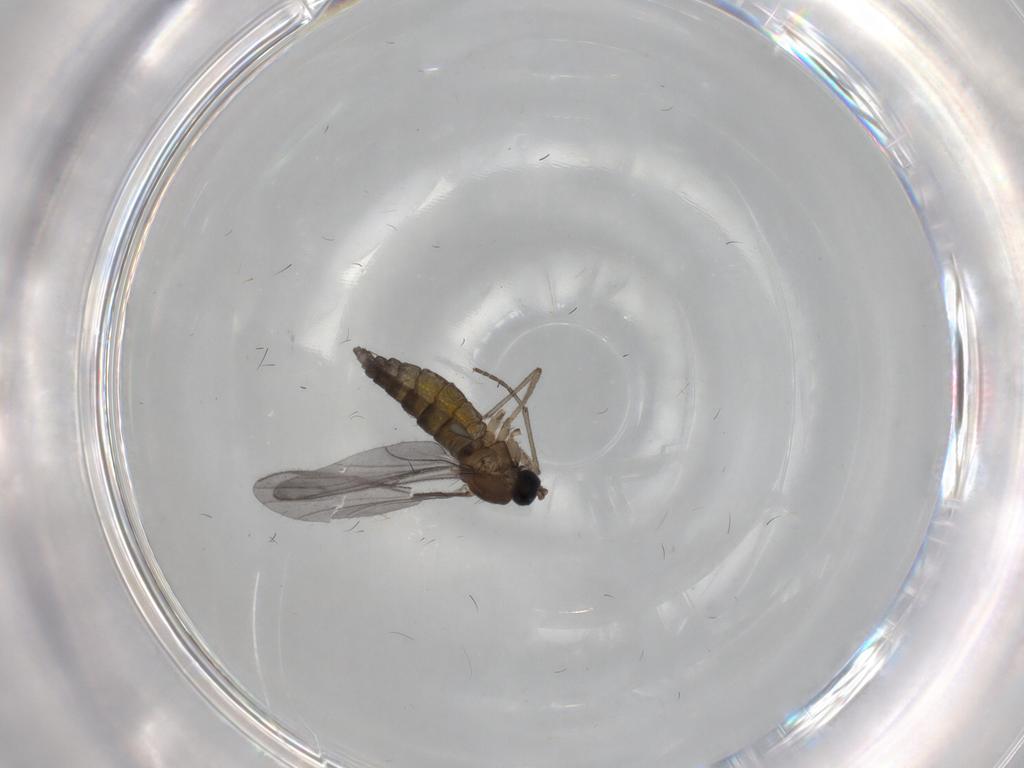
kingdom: Animalia
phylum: Arthropoda
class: Insecta
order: Diptera
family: Sciaridae
